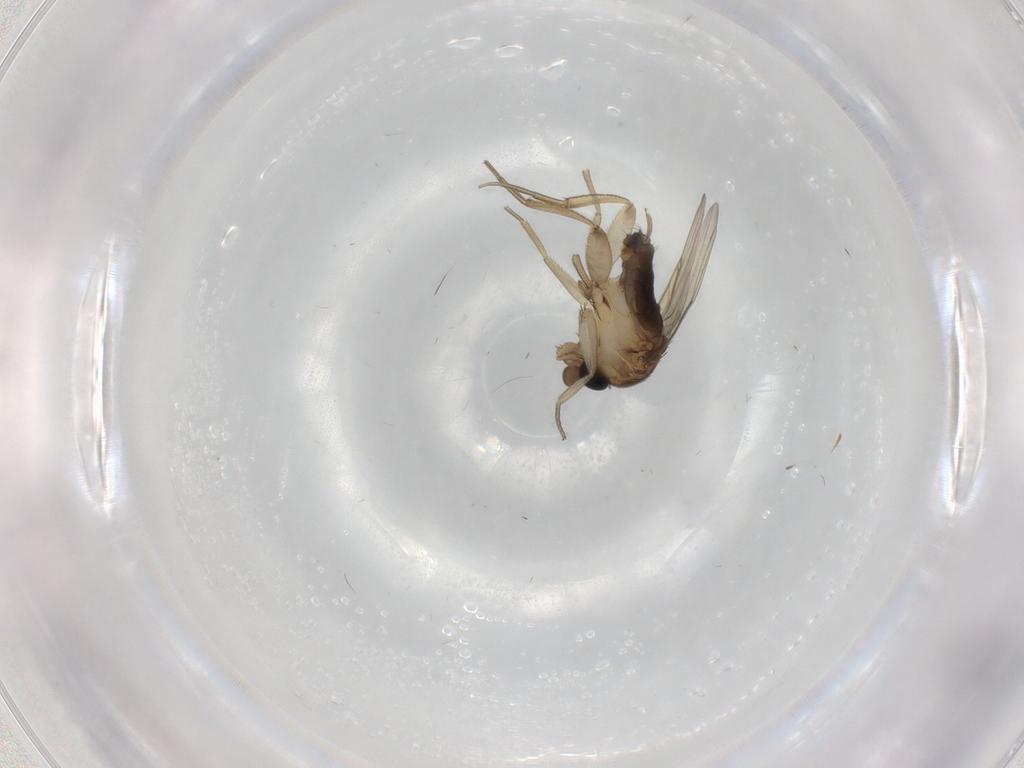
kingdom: Animalia
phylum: Arthropoda
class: Insecta
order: Diptera
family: Phoridae
